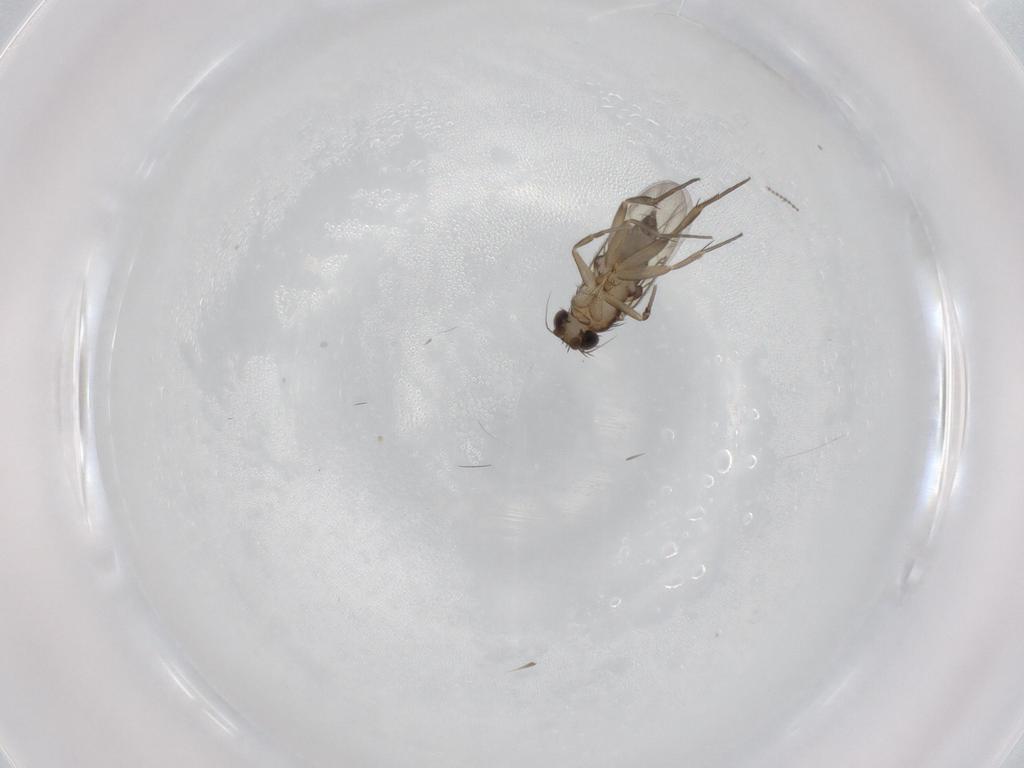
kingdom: Animalia
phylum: Arthropoda
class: Insecta
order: Diptera
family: Phoridae
